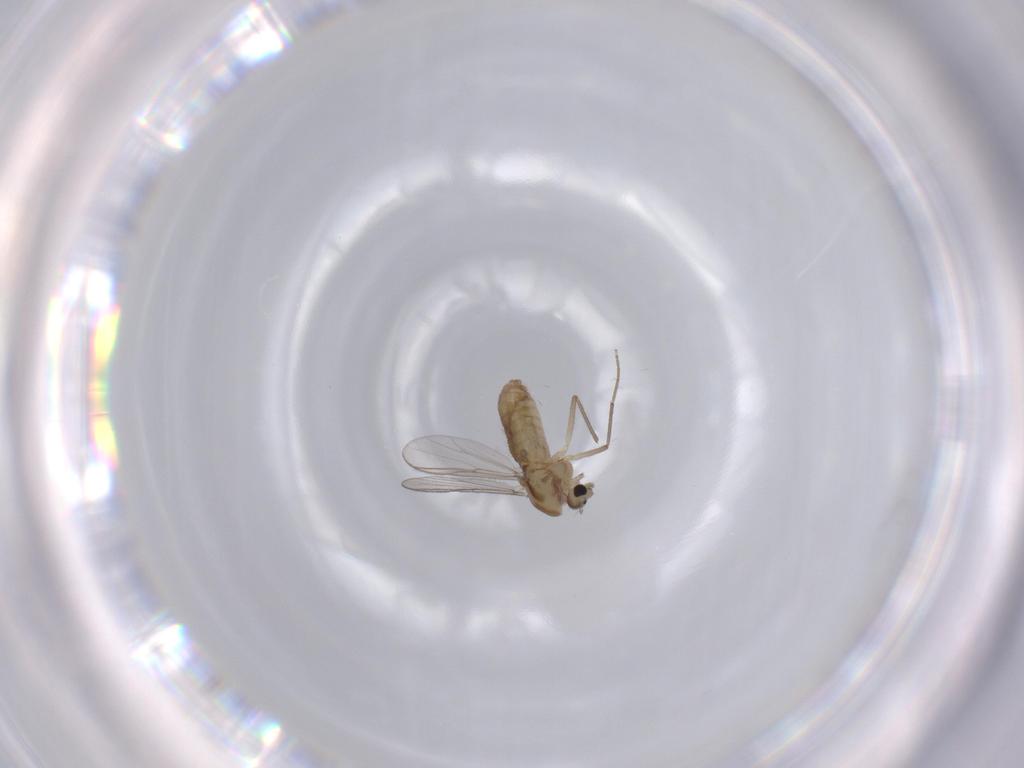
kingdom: Animalia
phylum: Arthropoda
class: Insecta
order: Diptera
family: Chironomidae
